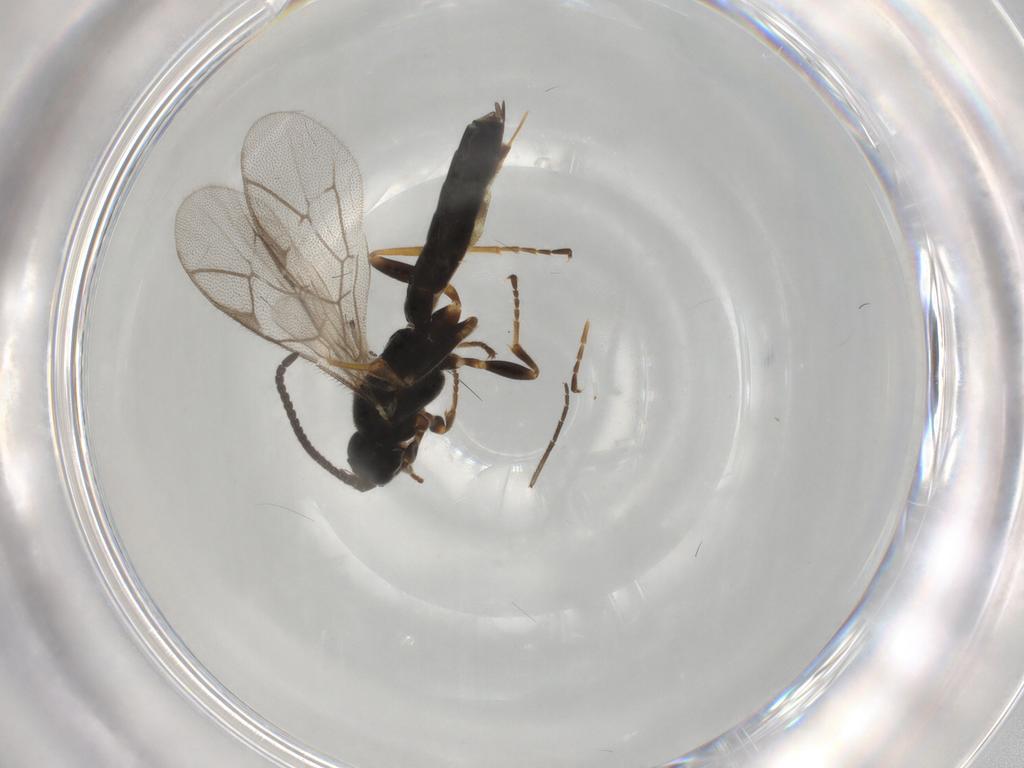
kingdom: Animalia
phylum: Arthropoda
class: Insecta
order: Hymenoptera
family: Ichneumonidae
